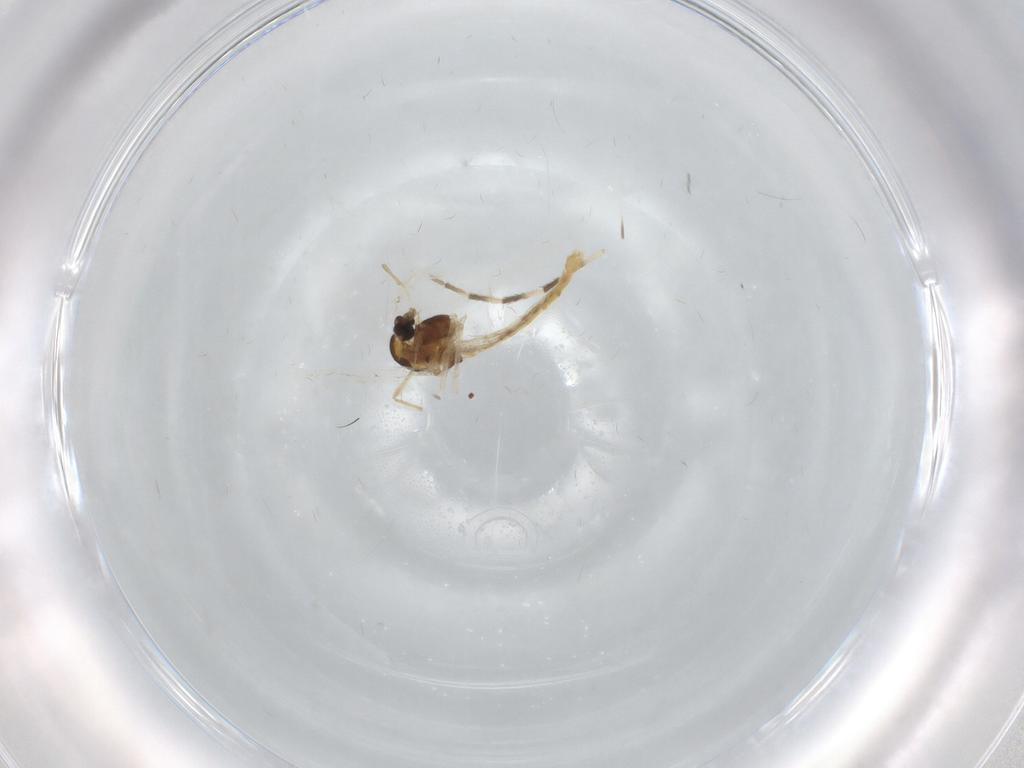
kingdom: Animalia
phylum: Arthropoda
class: Insecta
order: Diptera
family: Chironomidae
